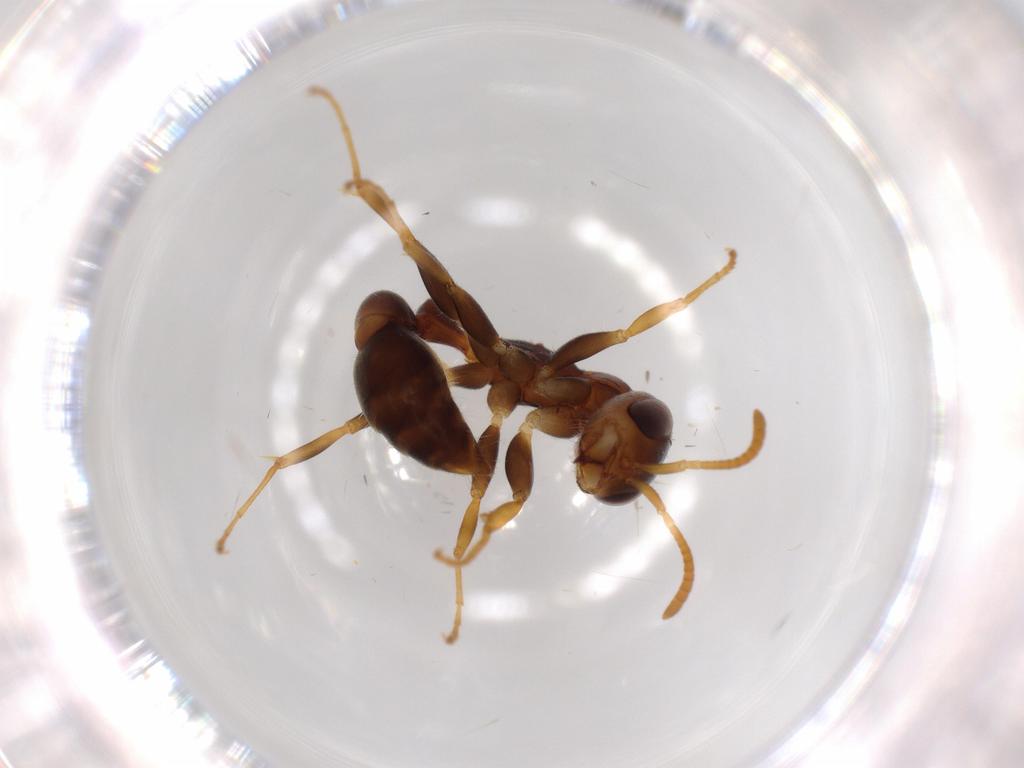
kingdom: Animalia
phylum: Arthropoda
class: Insecta
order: Hymenoptera
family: Formicidae
